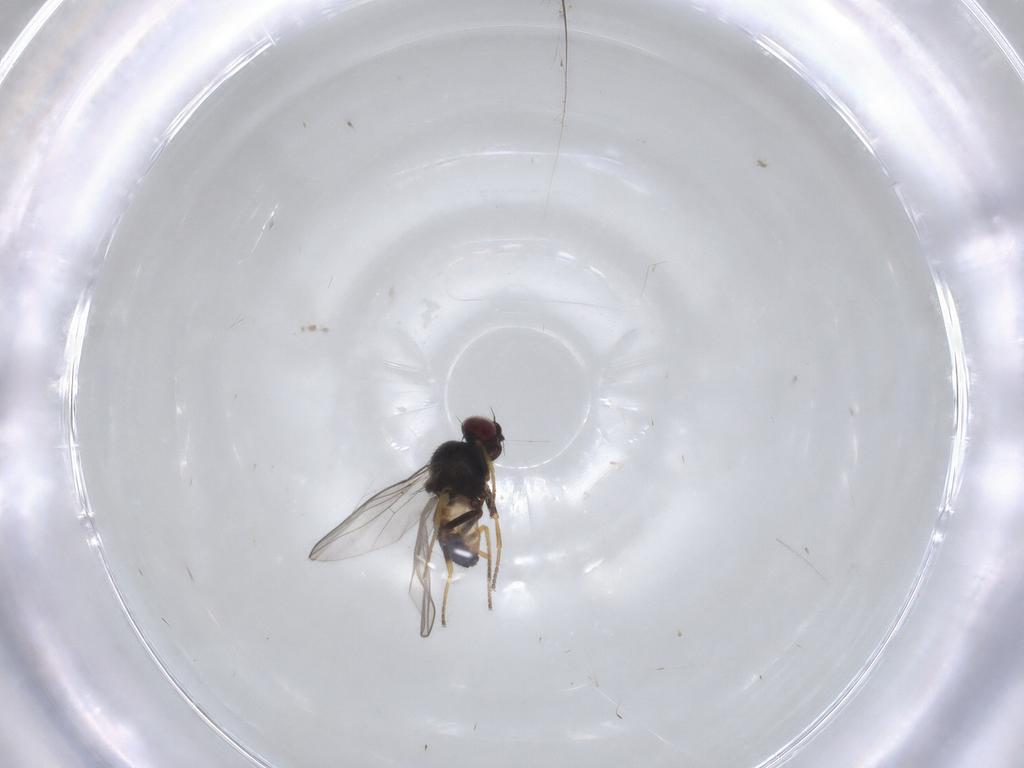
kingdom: Animalia
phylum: Arthropoda
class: Insecta
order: Diptera
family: Chloropidae
